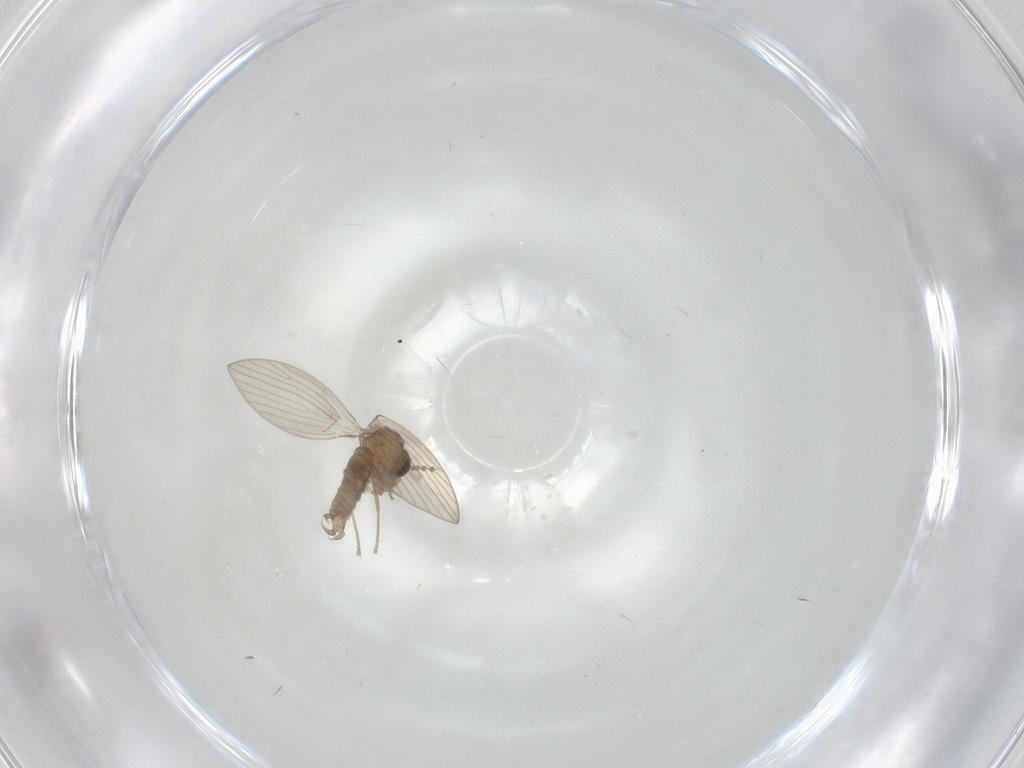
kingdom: Animalia
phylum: Arthropoda
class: Insecta
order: Diptera
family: Psychodidae
